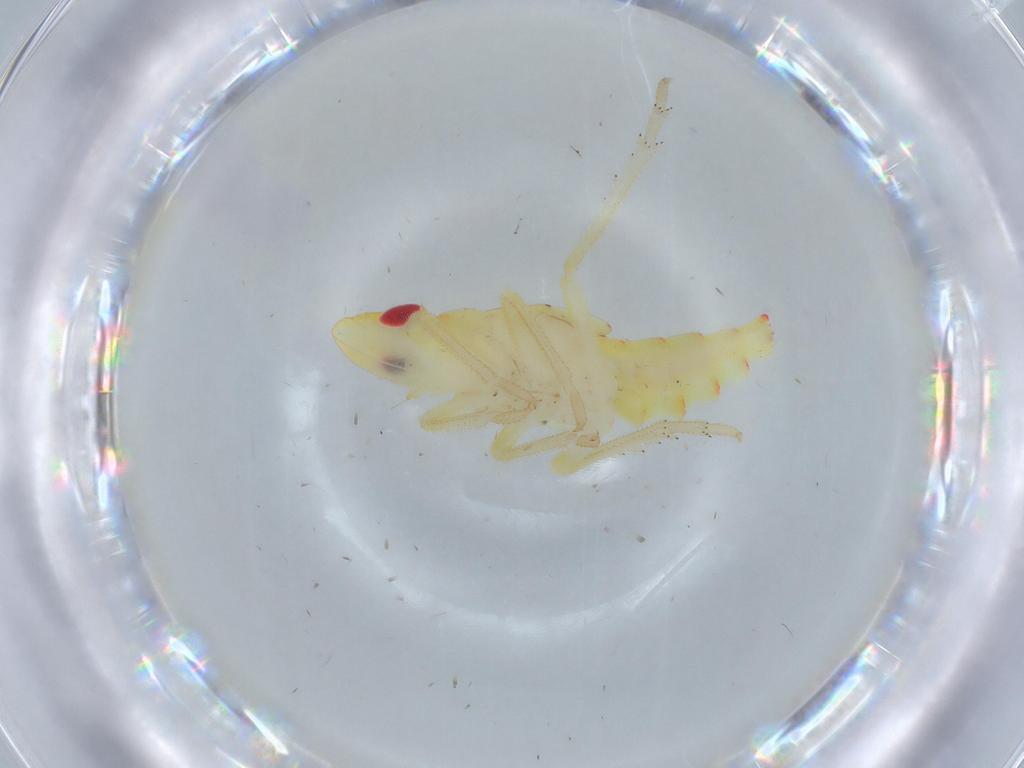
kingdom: Animalia
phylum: Arthropoda
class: Insecta
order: Hemiptera
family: Tropiduchidae
